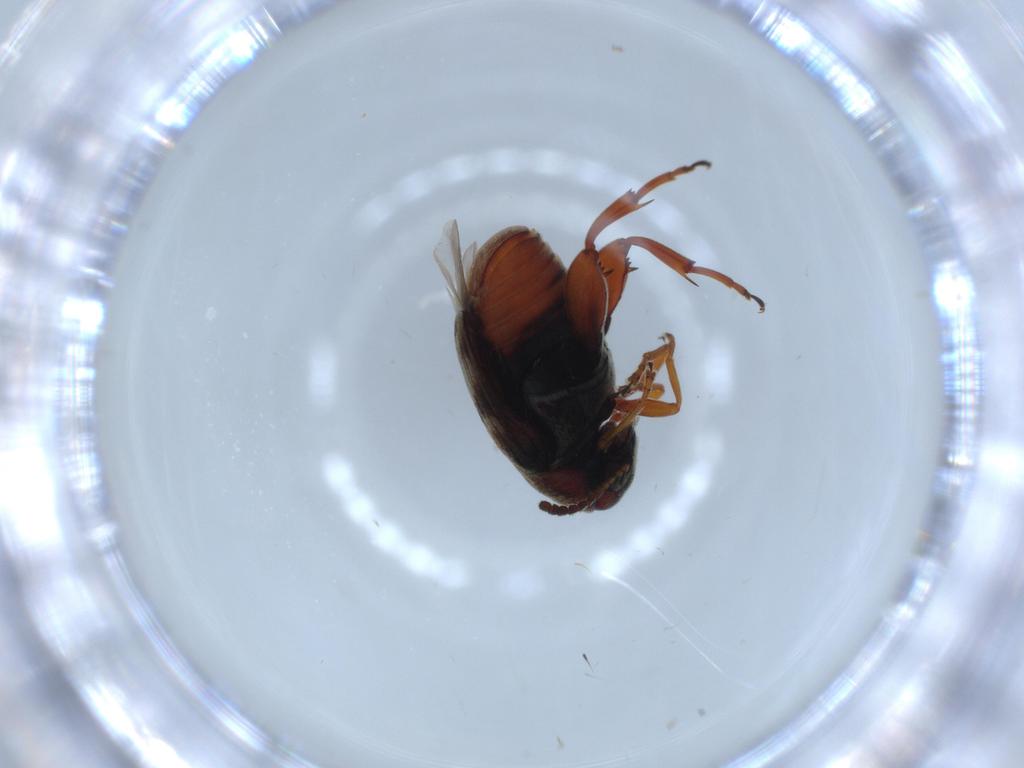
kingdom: Animalia
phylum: Arthropoda
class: Insecta
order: Coleoptera
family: Chrysomelidae
